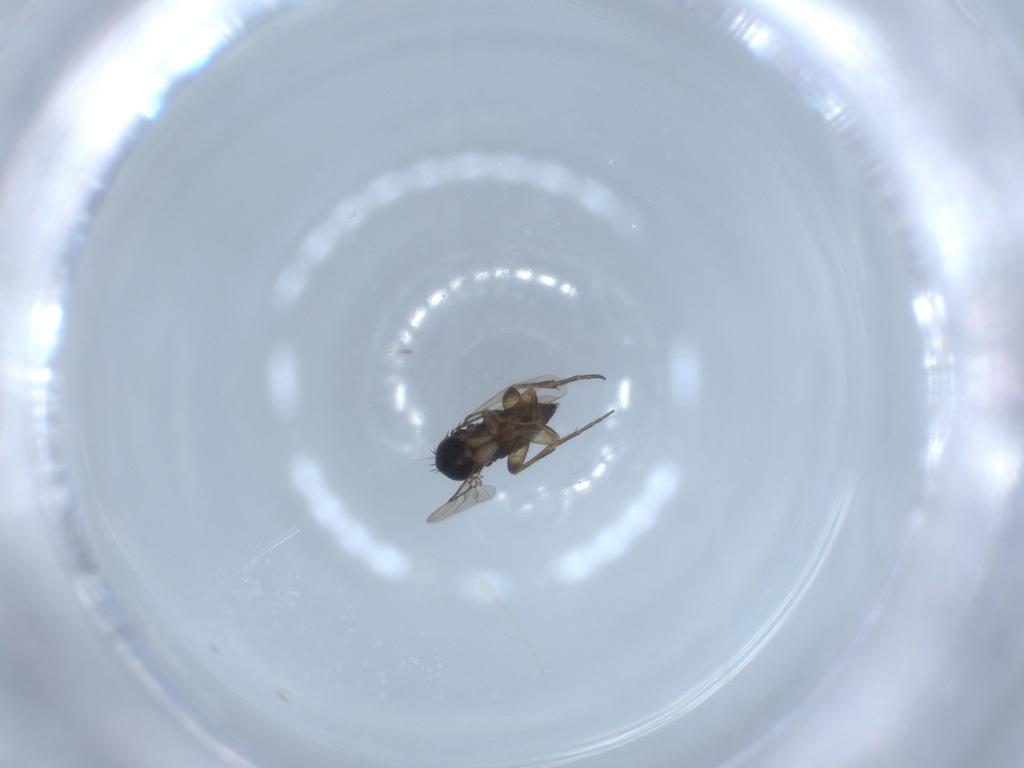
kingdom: Animalia
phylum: Arthropoda
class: Insecta
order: Diptera
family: Phoridae
